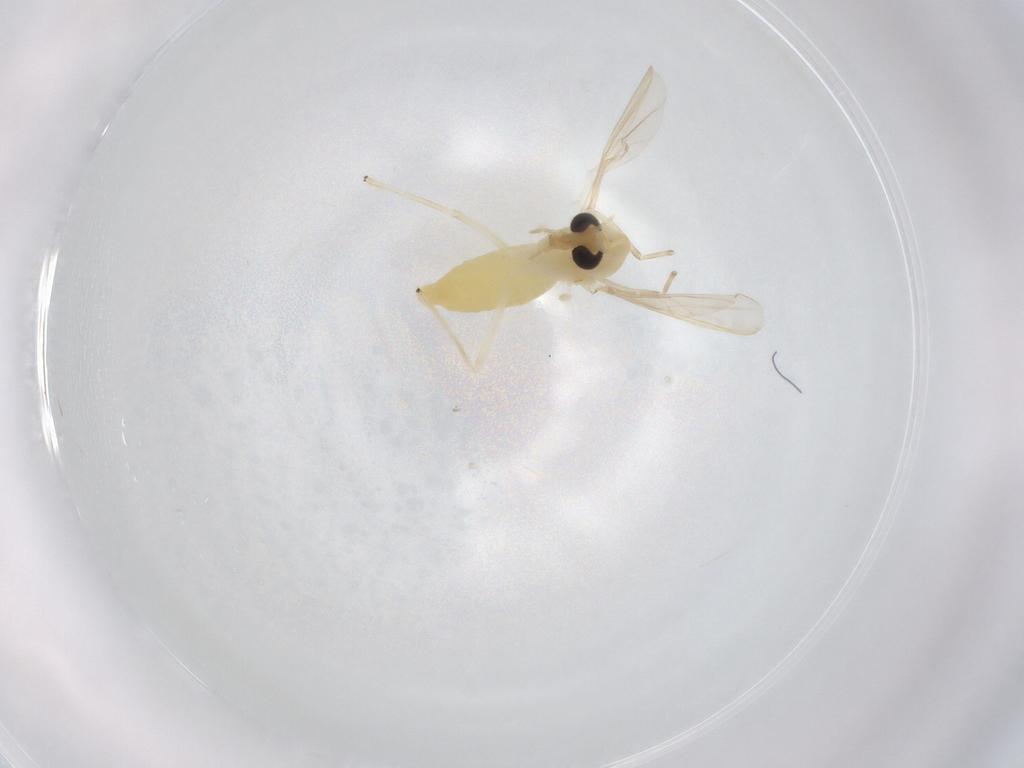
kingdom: Animalia
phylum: Arthropoda
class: Insecta
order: Diptera
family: Chironomidae
